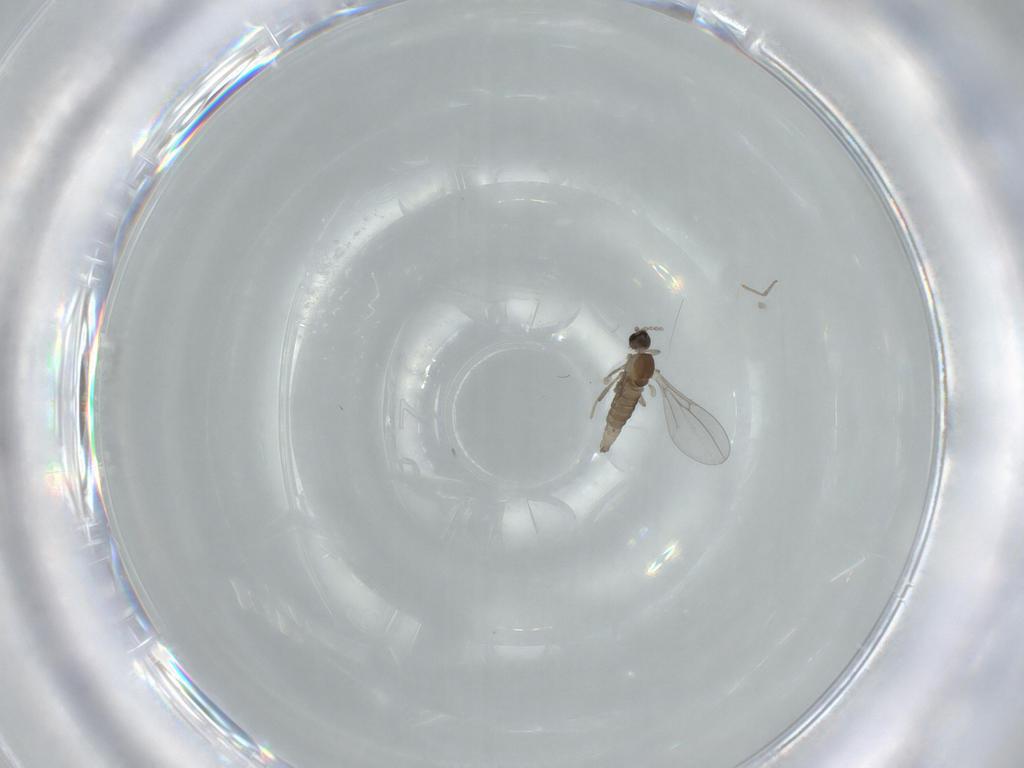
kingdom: Animalia
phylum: Arthropoda
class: Insecta
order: Diptera
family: Cecidomyiidae
